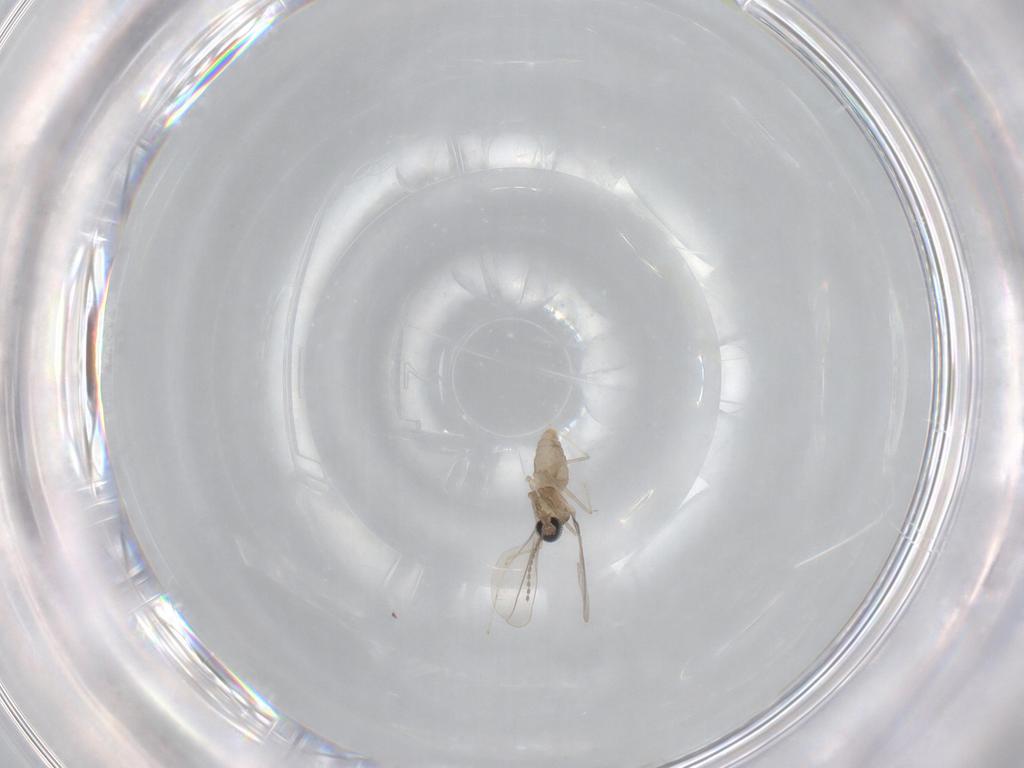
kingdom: Animalia
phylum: Arthropoda
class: Insecta
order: Diptera
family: Cecidomyiidae
